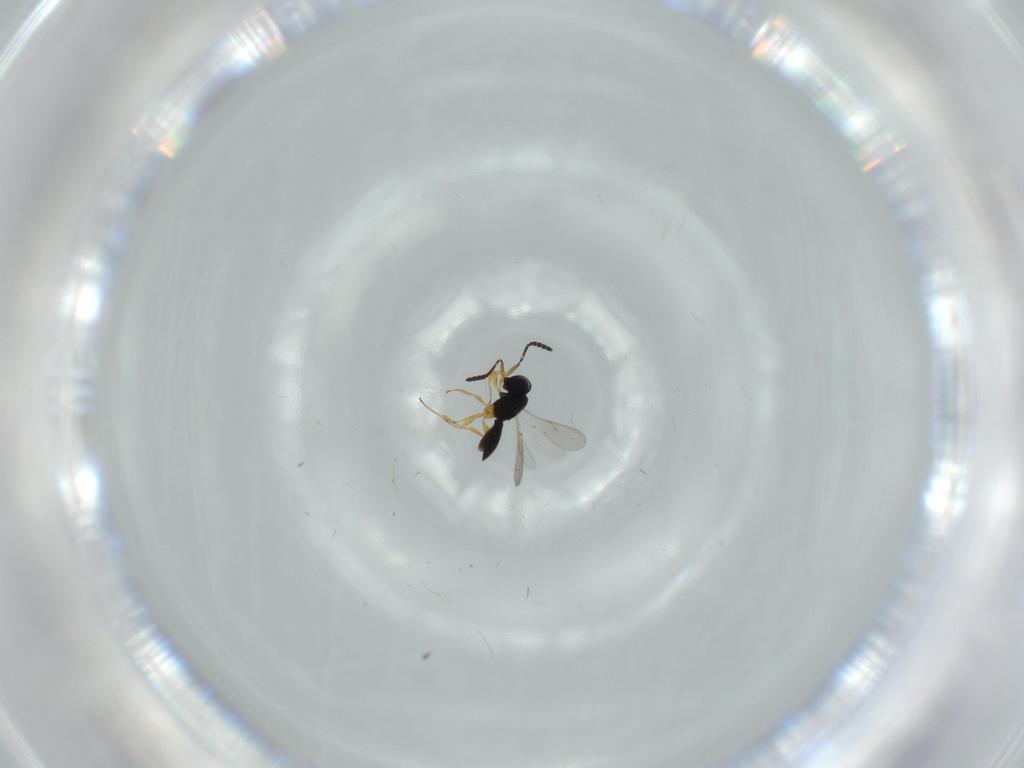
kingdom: Animalia
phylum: Arthropoda
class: Insecta
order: Hymenoptera
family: Scelionidae
